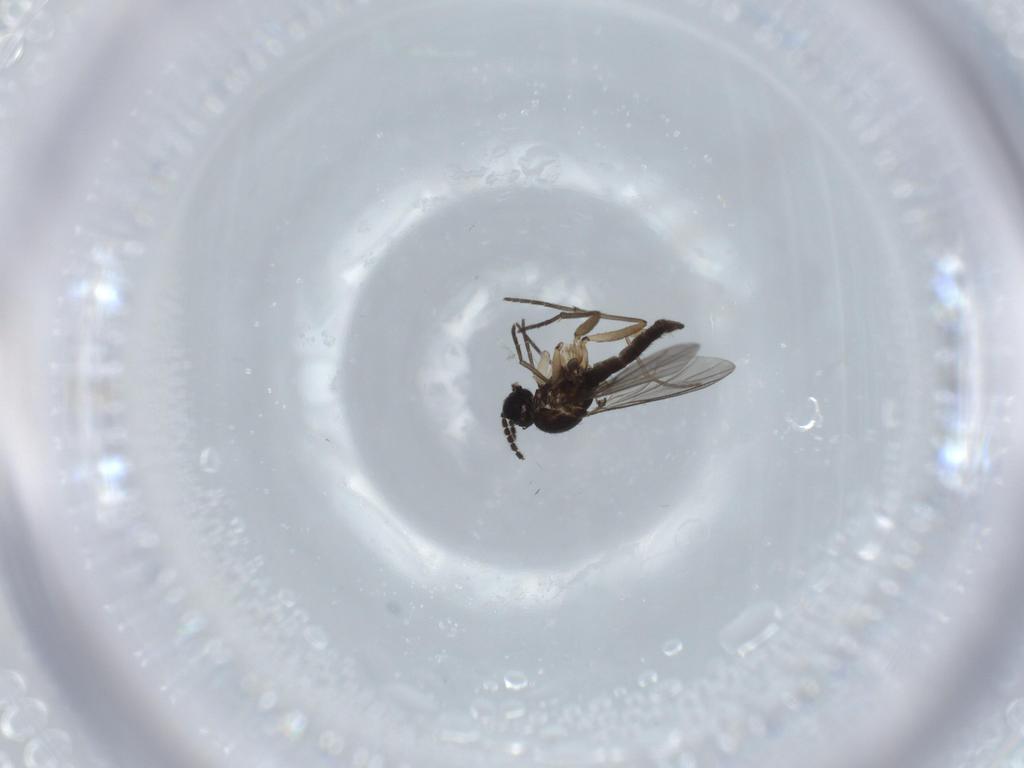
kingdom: Animalia
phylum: Arthropoda
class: Insecta
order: Diptera
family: Sciaridae
